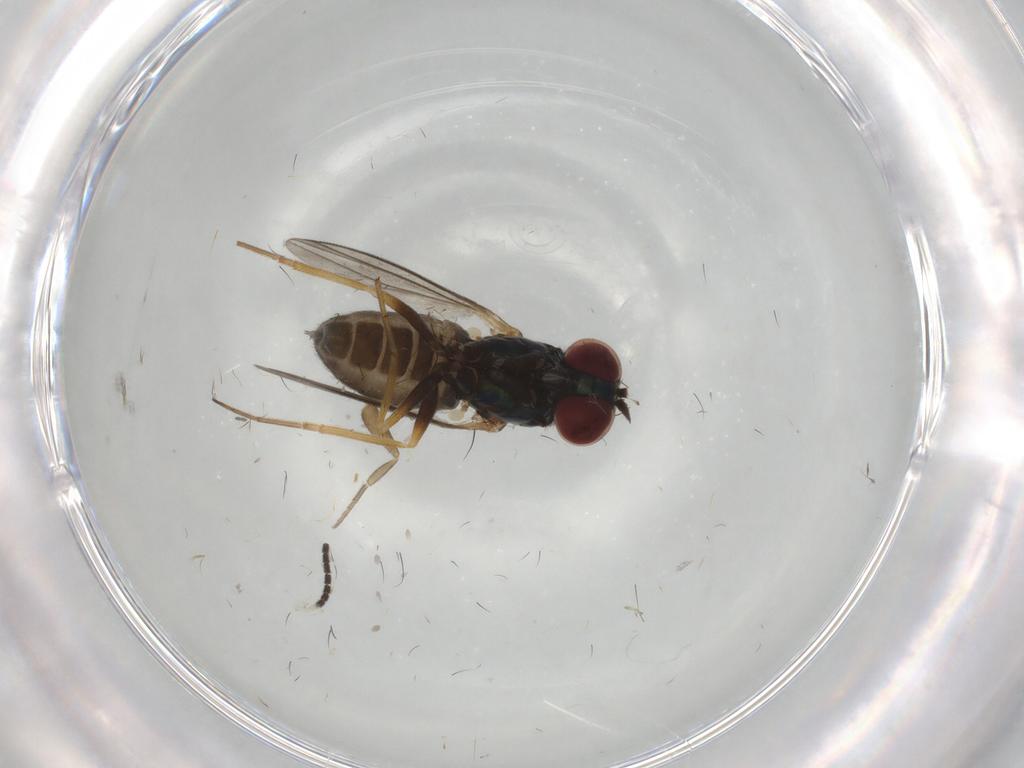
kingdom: Animalia
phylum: Arthropoda
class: Insecta
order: Diptera
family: Dolichopodidae
